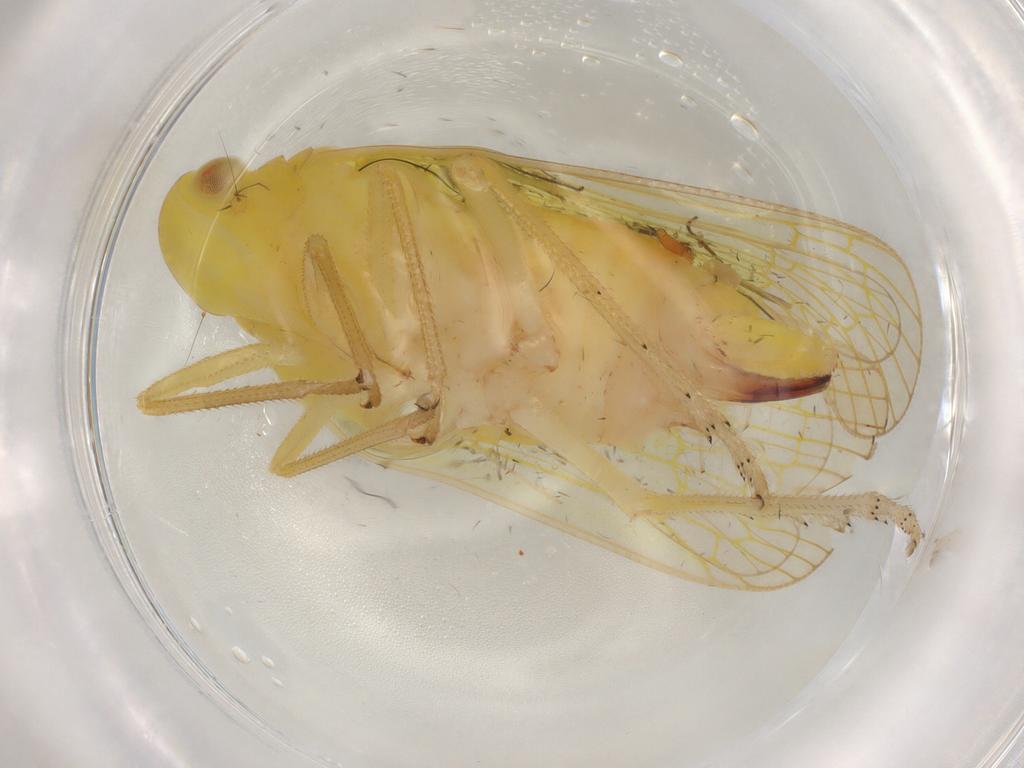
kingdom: Animalia
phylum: Arthropoda
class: Insecta
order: Hemiptera
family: Tropiduchidae
